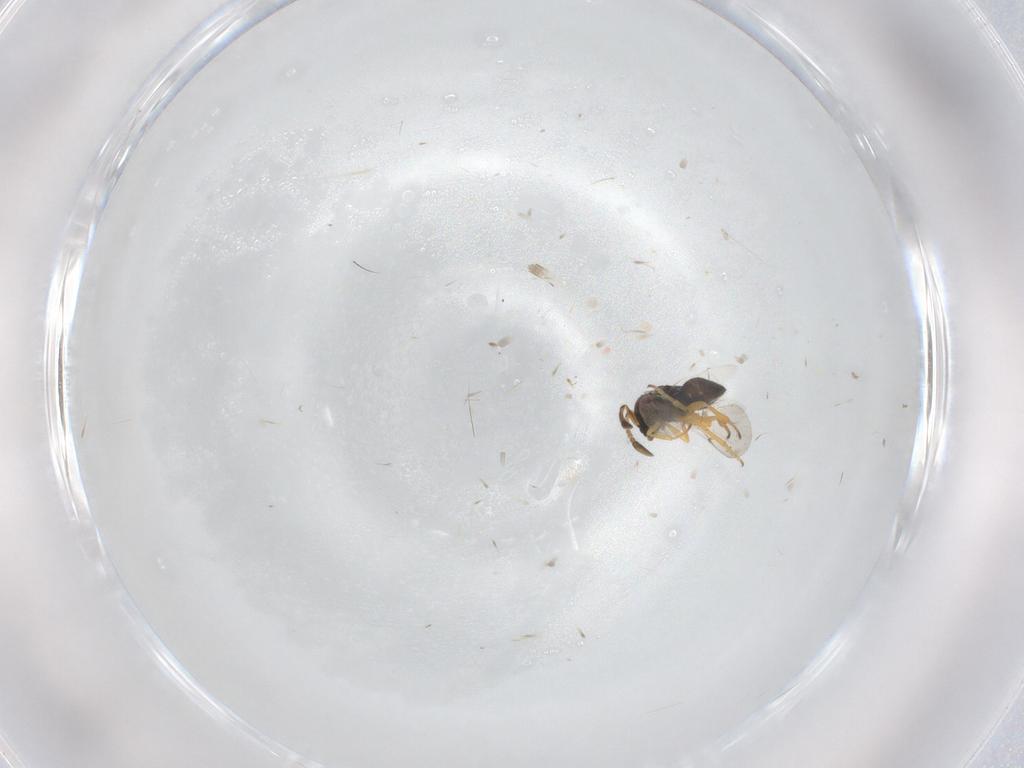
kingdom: Animalia
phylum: Arthropoda
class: Insecta
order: Hymenoptera
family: Encyrtidae
